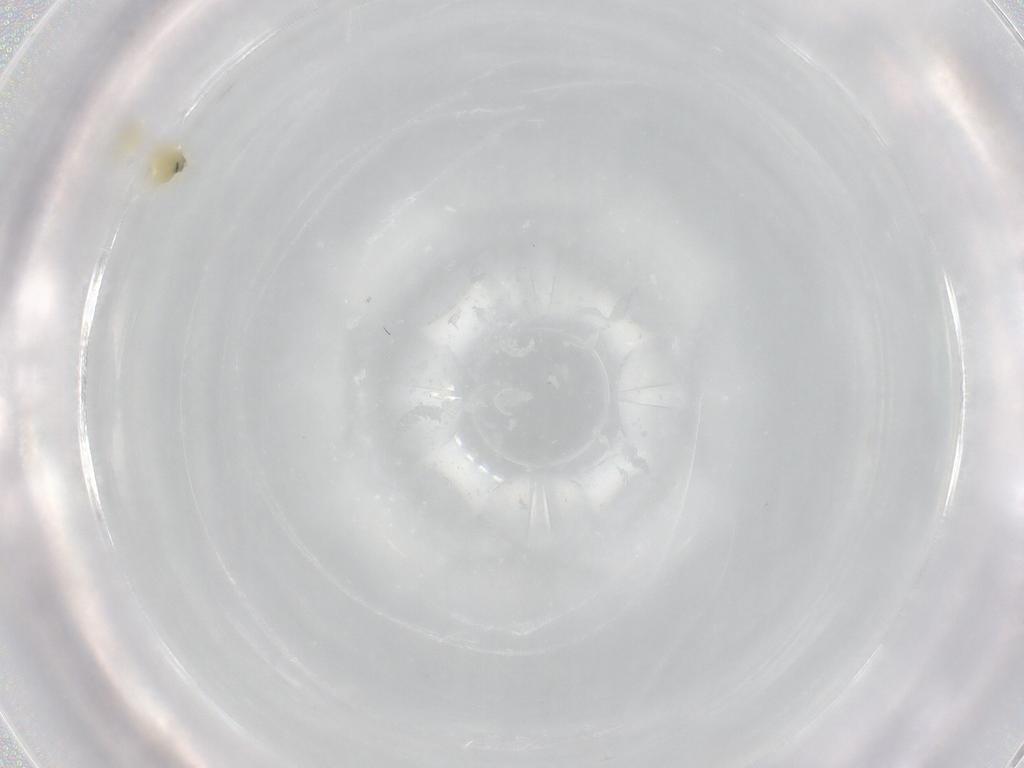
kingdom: Animalia
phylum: Arthropoda
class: Insecta
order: Hemiptera
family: Aleyrodidae
